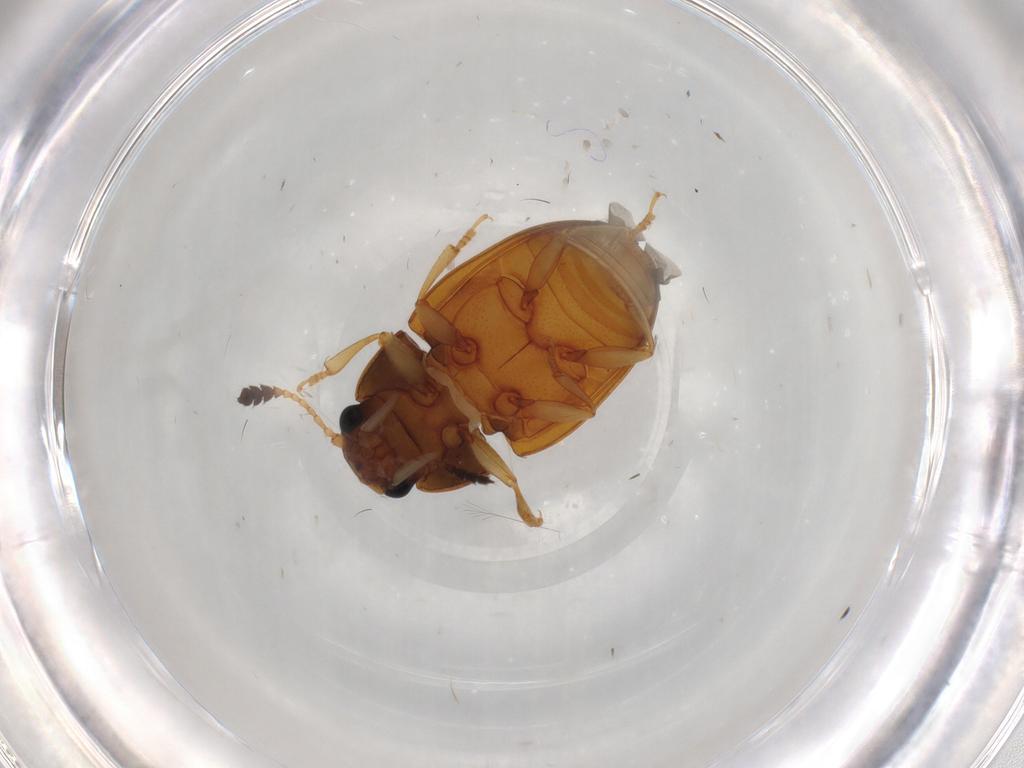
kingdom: Animalia
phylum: Arthropoda
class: Insecta
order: Coleoptera
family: Erotylidae
